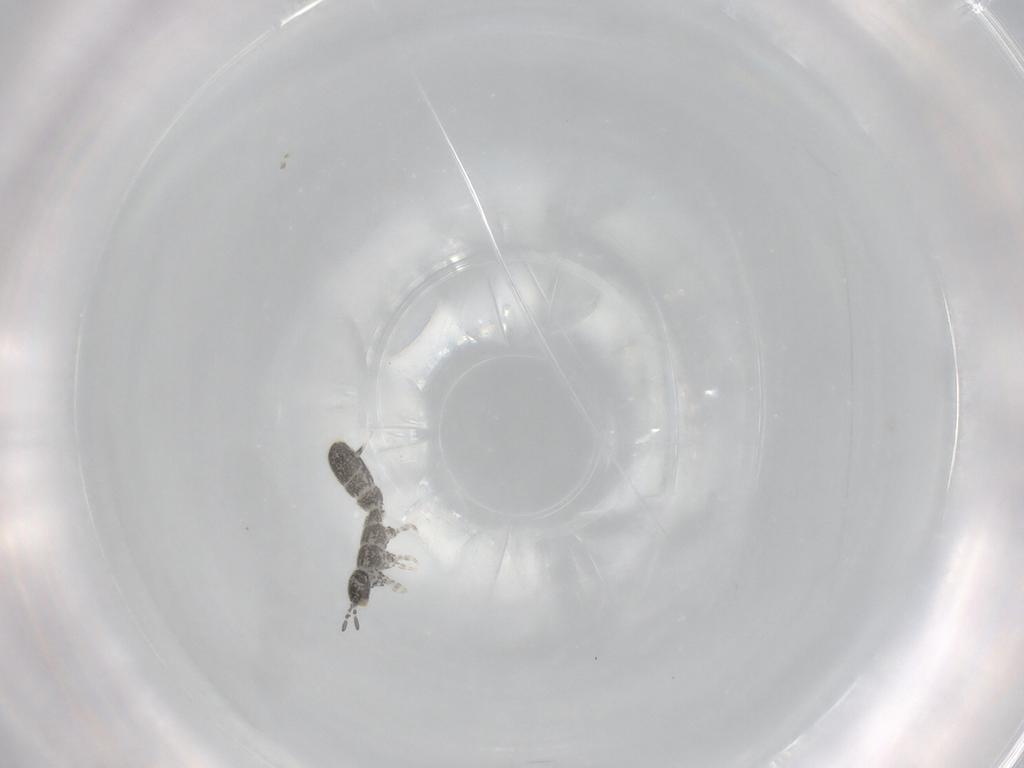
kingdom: Animalia
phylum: Arthropoda
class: Collembola
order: Entomobryomorpha
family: Isotomidae
